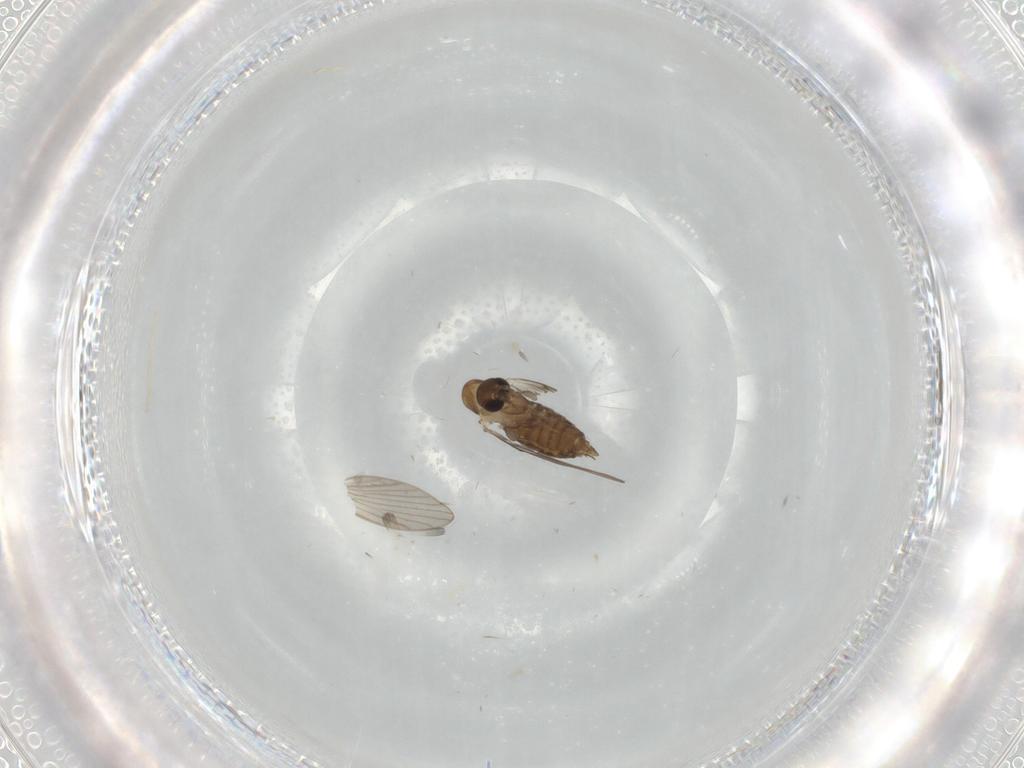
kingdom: Animalia
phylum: Arthropoda
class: Insecta
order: Diptera
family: Psychodidae
